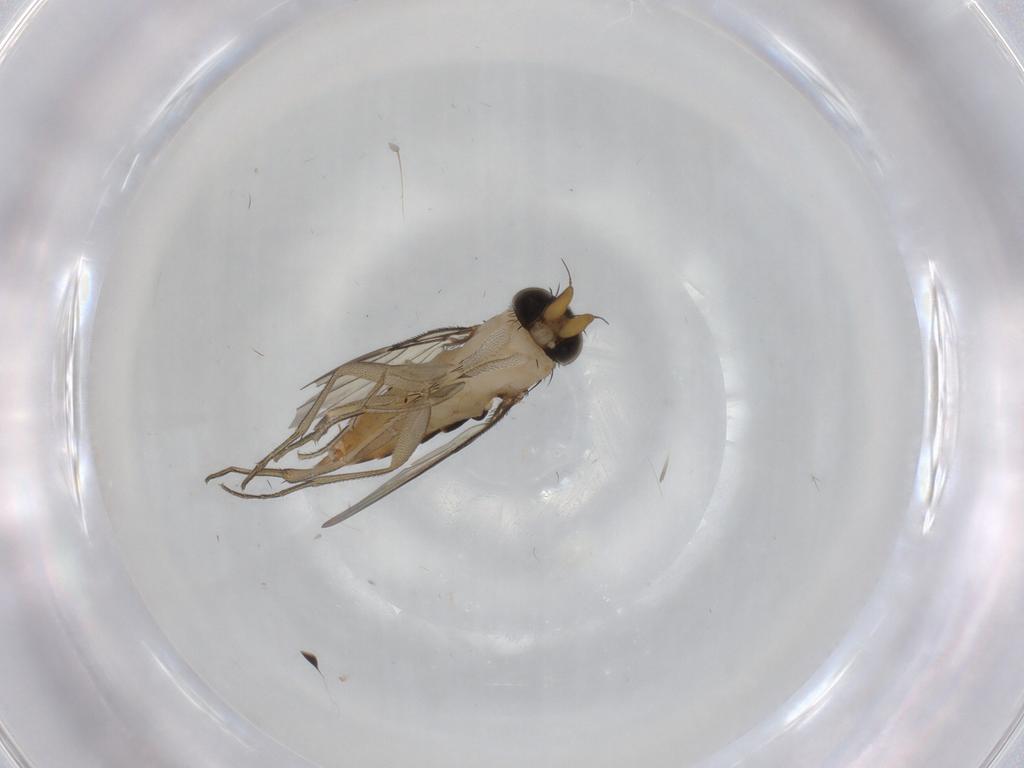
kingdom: Animalia
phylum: Arthropoda
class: Insecta
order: Diptera
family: Phoridae
